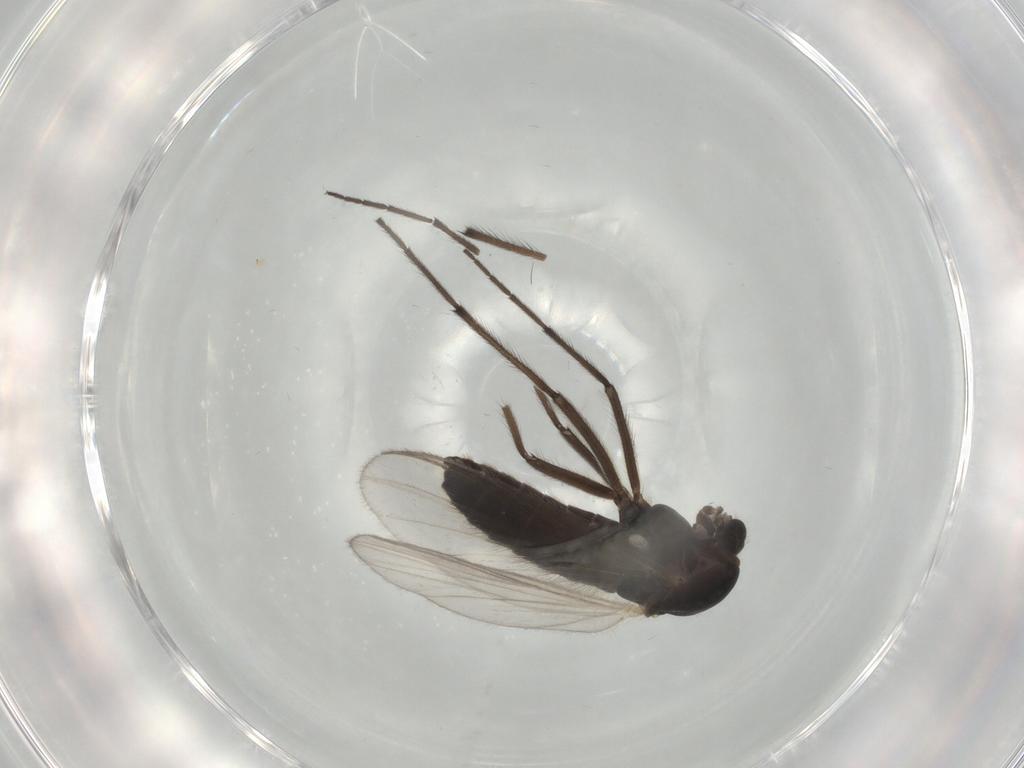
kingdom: Animalia
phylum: Arthropoda
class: Insecta
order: Diptera
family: Chironomidae
